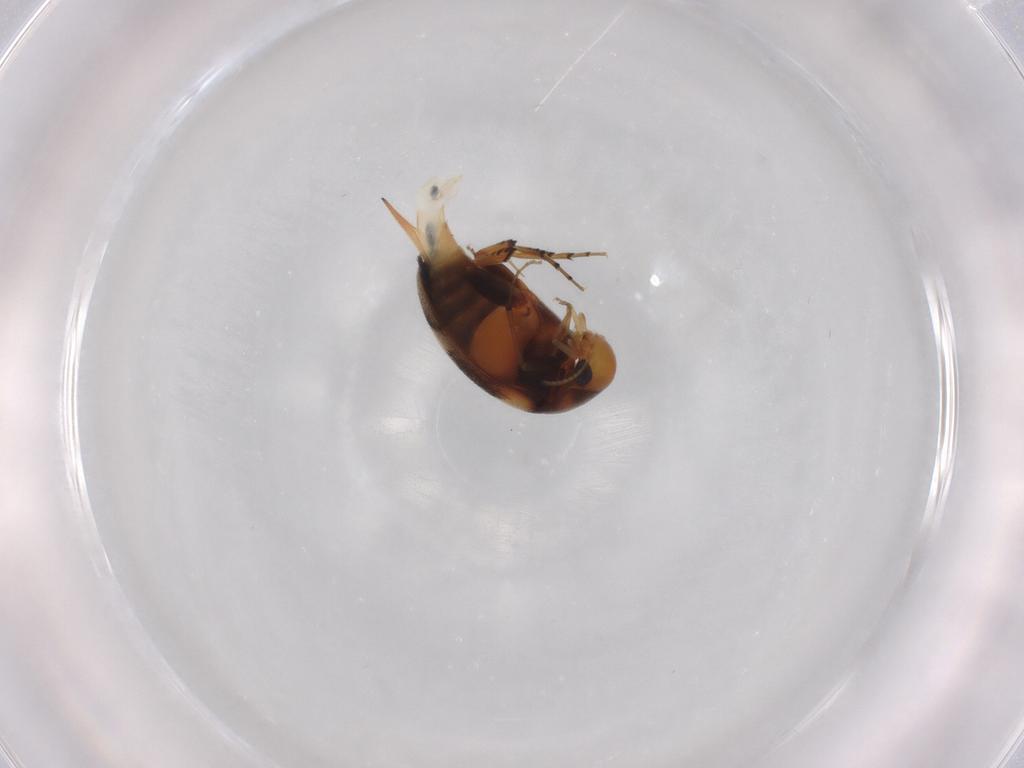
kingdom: Animalia
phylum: Arthropoda
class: Insecta
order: Coleoptera
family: Mordellidae
